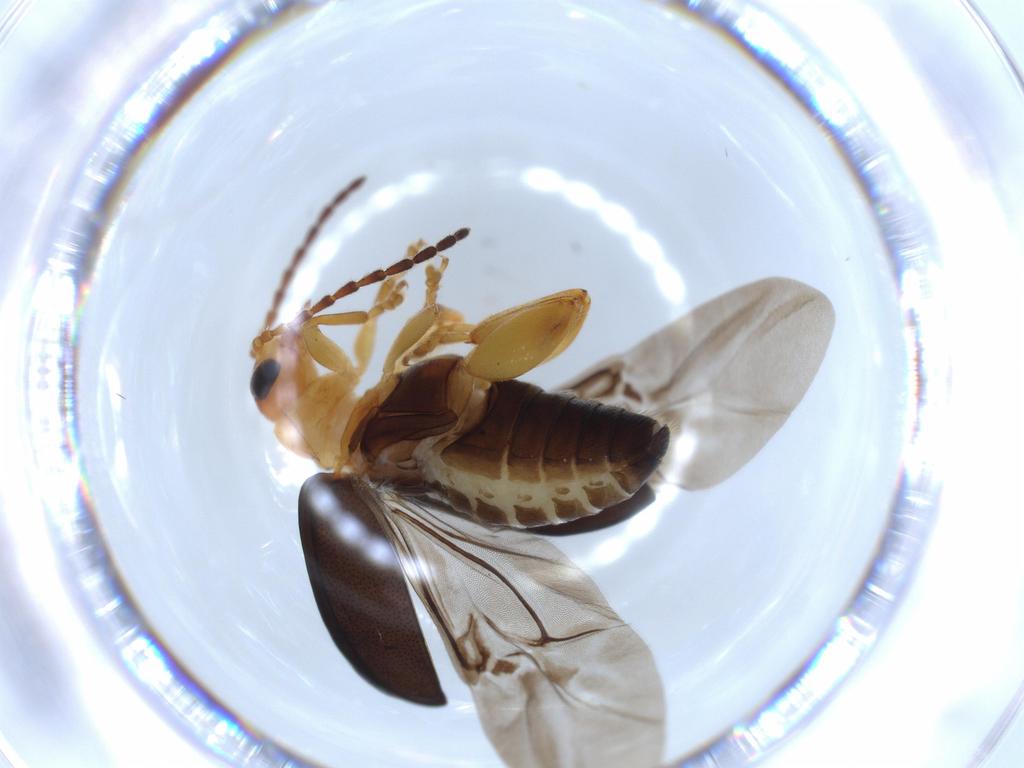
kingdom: Animalia
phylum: Arthropoda
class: Insecta
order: Coleoptera
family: Chrysomelidae
